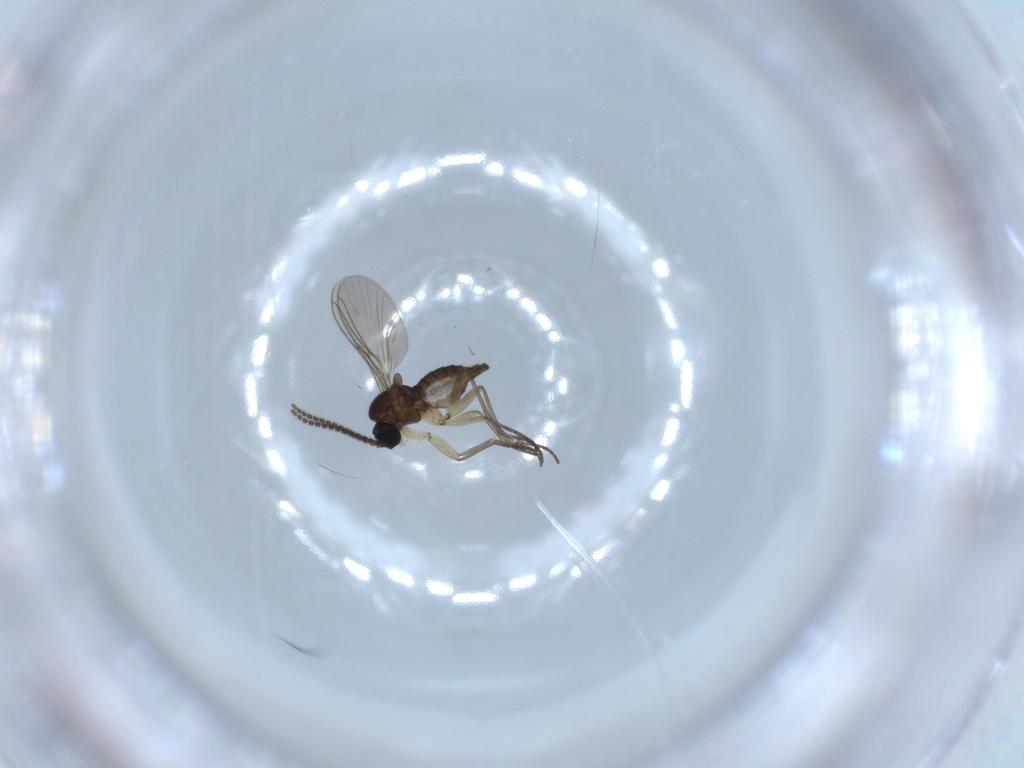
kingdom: Animalia
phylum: Arthropoda
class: Insecta
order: Diptera
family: Sciaridae
